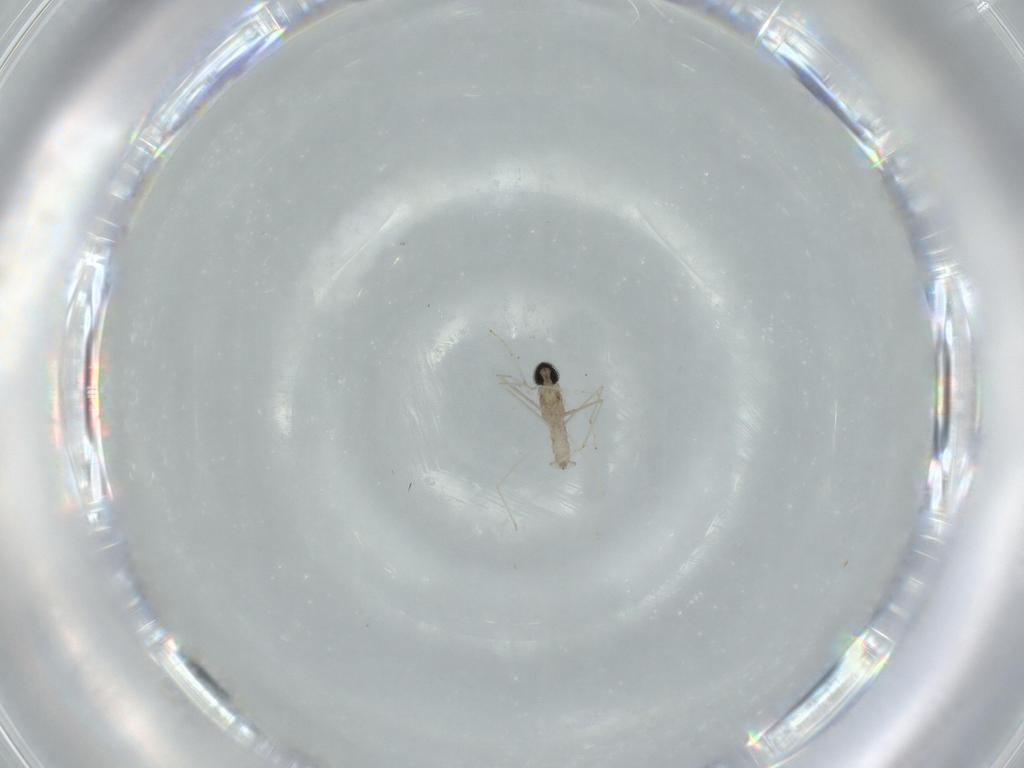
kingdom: Animalia
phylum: Arthropoda
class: Insecta
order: Diptera
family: Cecidomyiidae
